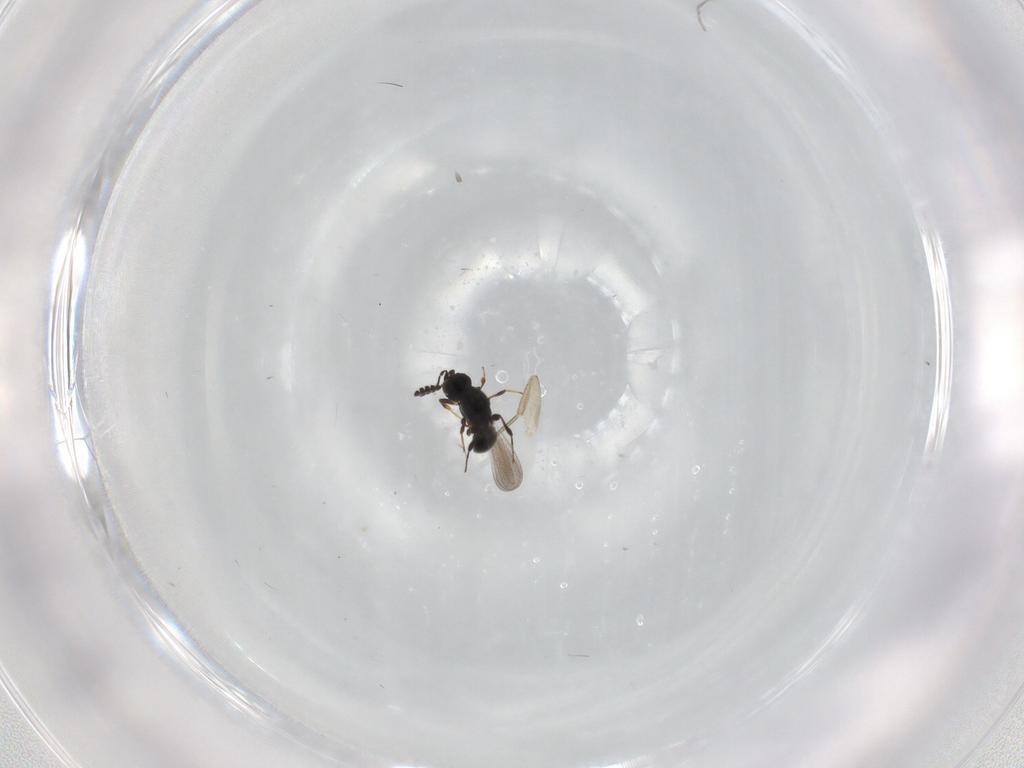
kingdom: Animalia
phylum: Arthropoda
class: Insecta
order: Hymenoptera
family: Platygastridae
